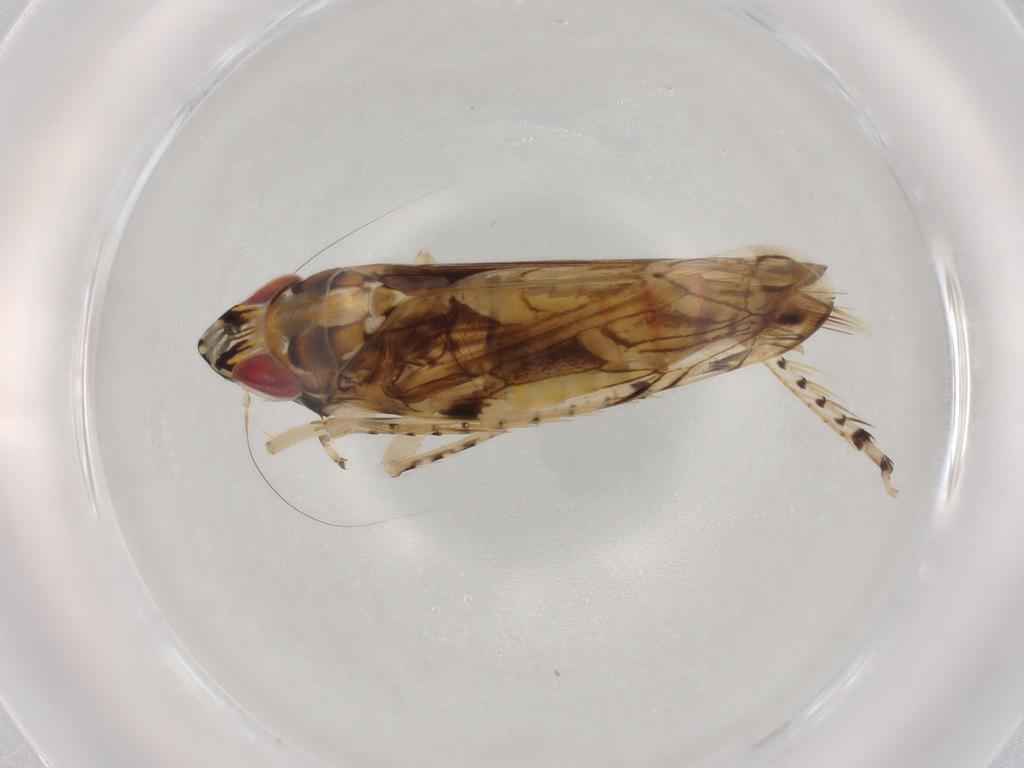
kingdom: Animalia
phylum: Arthropoda
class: Insecta
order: Hemiptera
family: Cicadellidae
